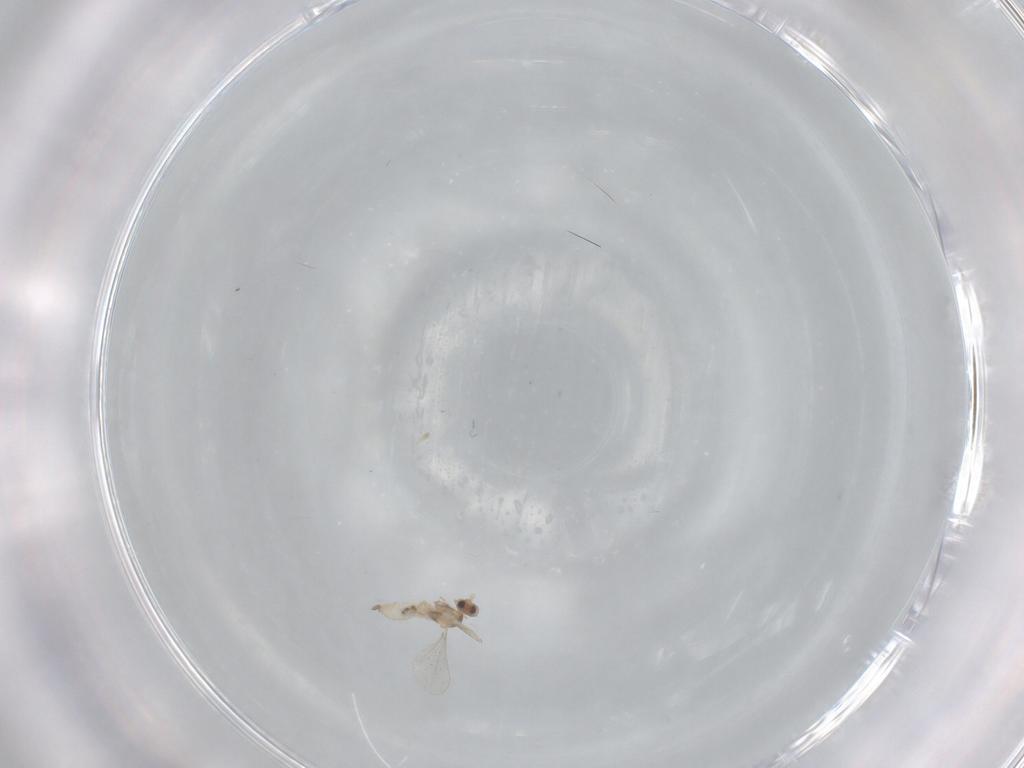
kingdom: Animalia
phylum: Arthropoda
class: Insecta
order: Diptera
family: Cecidomyiidae
